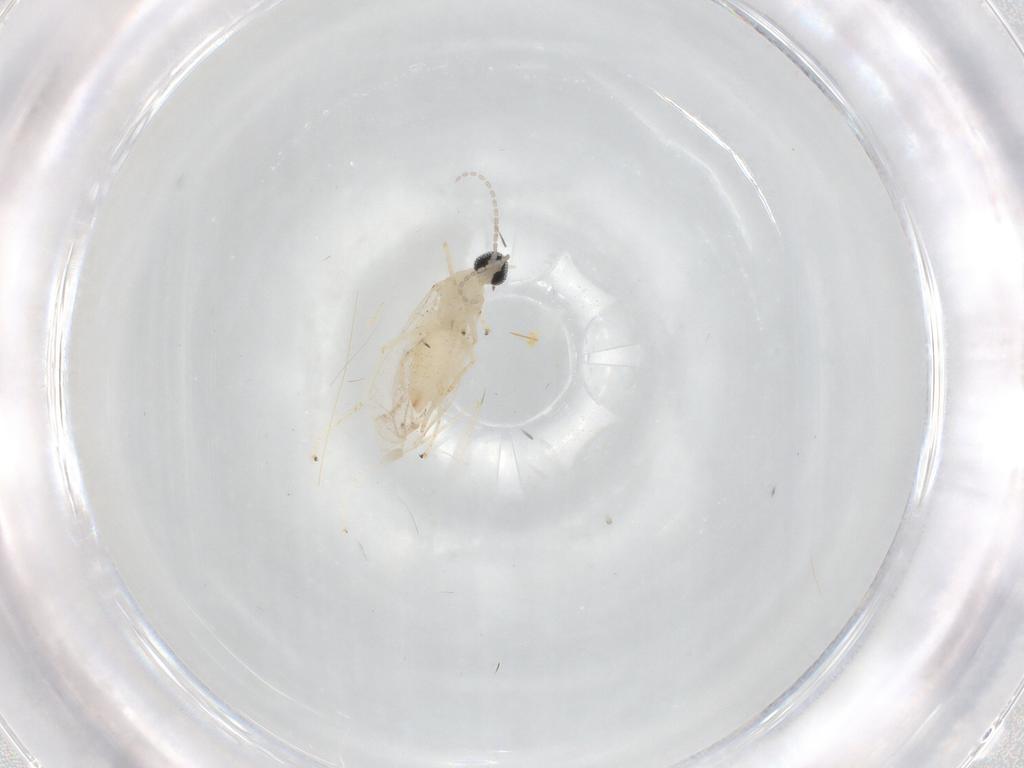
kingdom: Animalia
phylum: Arthropoda
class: Insecta
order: Diptera
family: Cecidomyiidae
